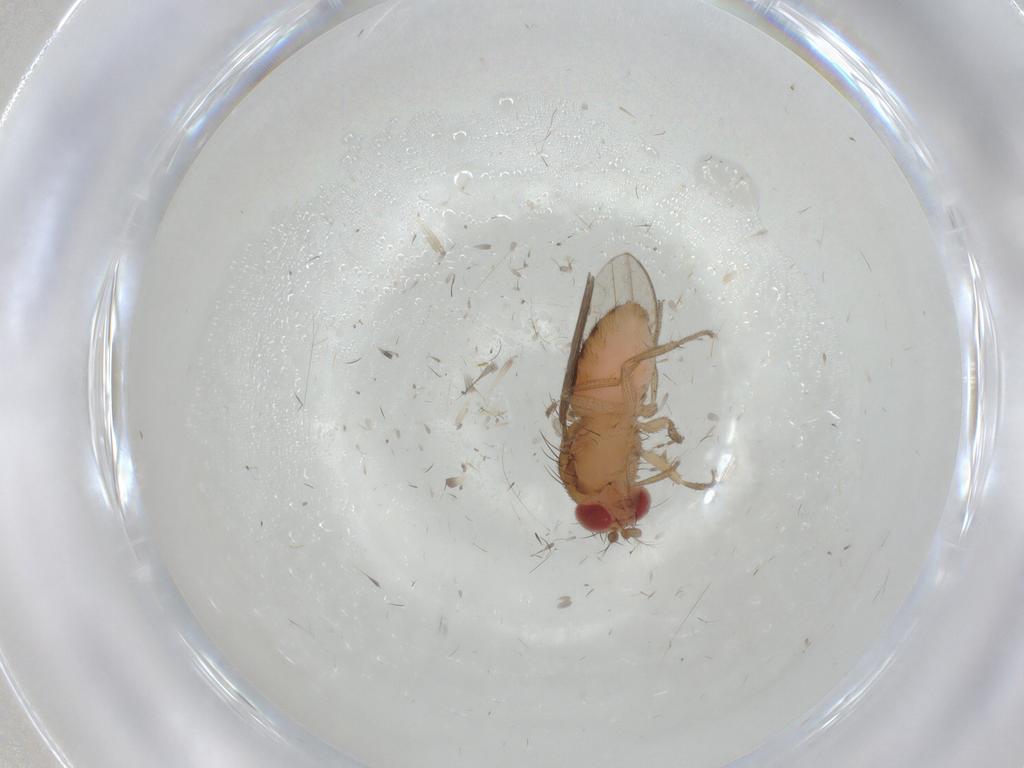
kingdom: Animalia
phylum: Arthropoda
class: Insecta
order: Diptera
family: Drosophilidae
